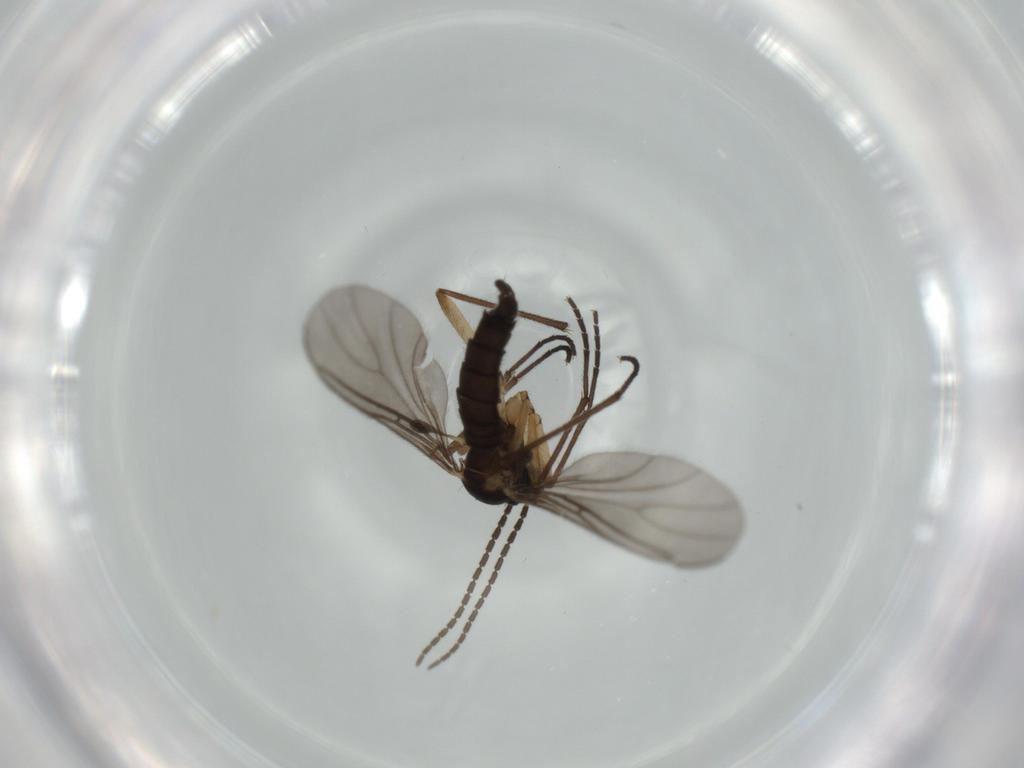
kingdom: Animalia
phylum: Arthropoda
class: Insecta
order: Diptera
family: Sciaridae
